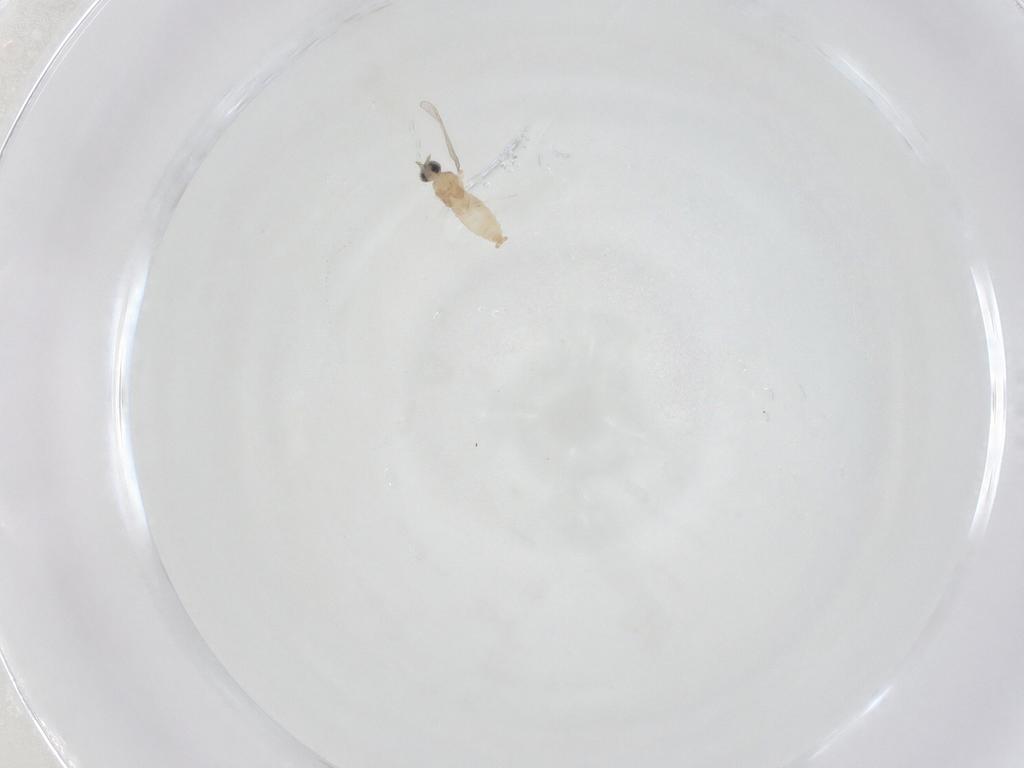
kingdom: Animalia
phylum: Arthropoda
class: Insecta
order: Diptera
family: Cecidomyiidae
